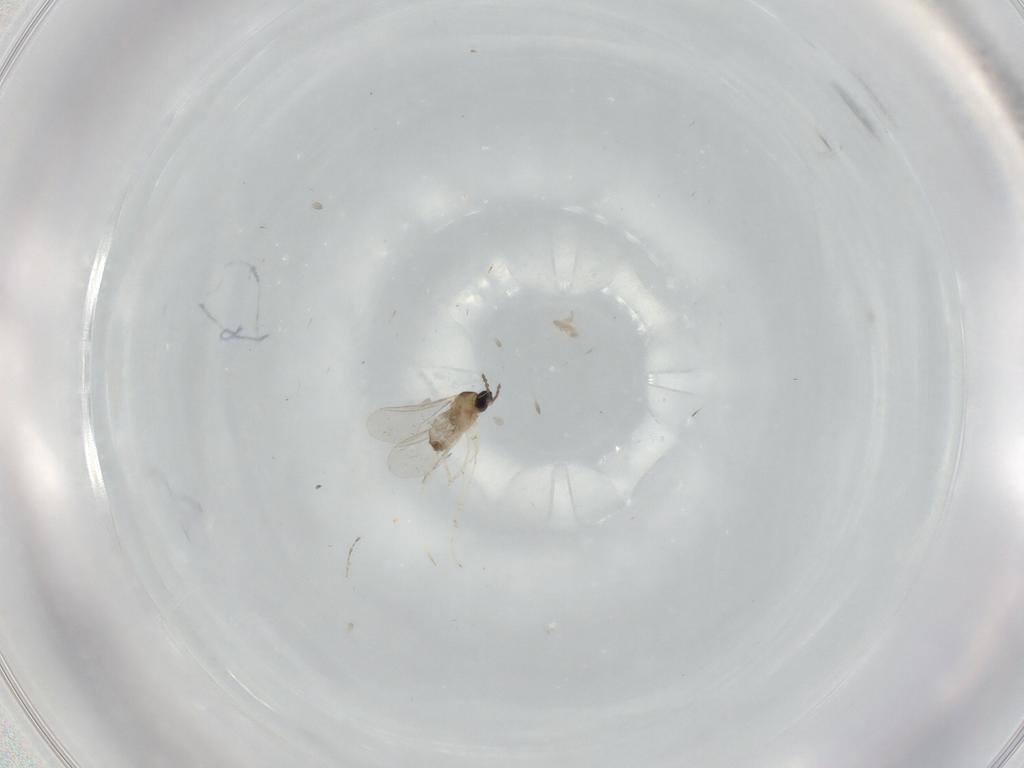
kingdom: Animalia
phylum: Arthropoda
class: Insecta
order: Diptera
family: Cecidomyiidae
